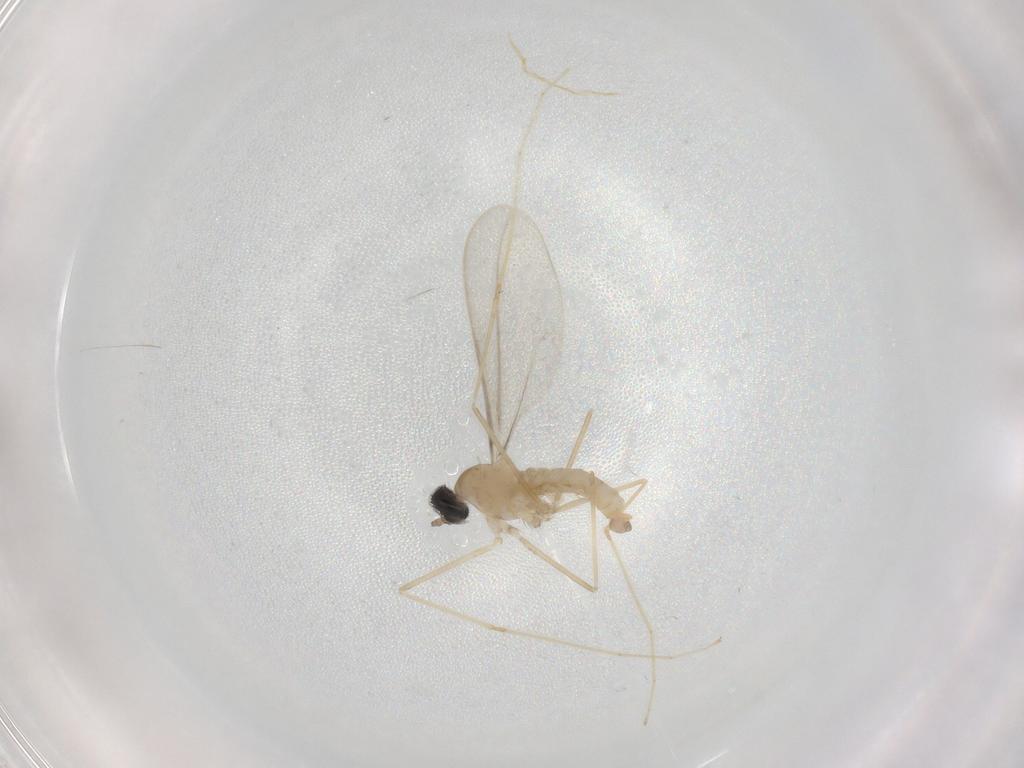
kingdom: Animalia
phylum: Arthropoda
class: Insecta
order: Diptera
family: Cecidomyiidae
